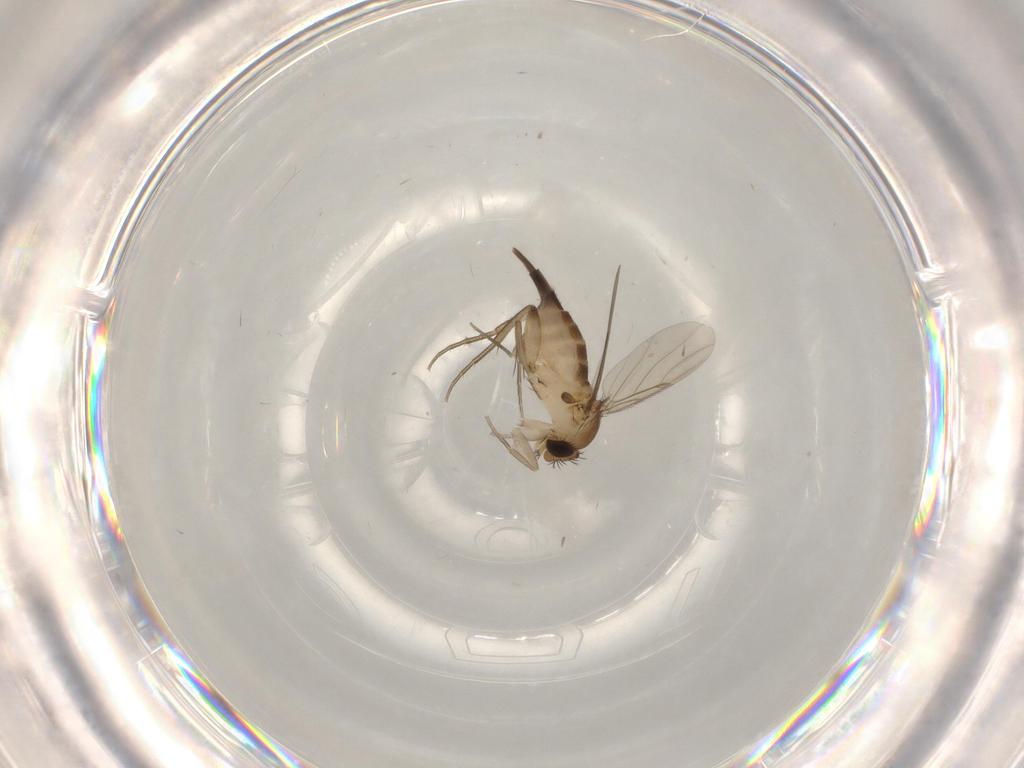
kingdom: Animalia
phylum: Arthropoda
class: Insecta
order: Diptera
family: Phoridae
